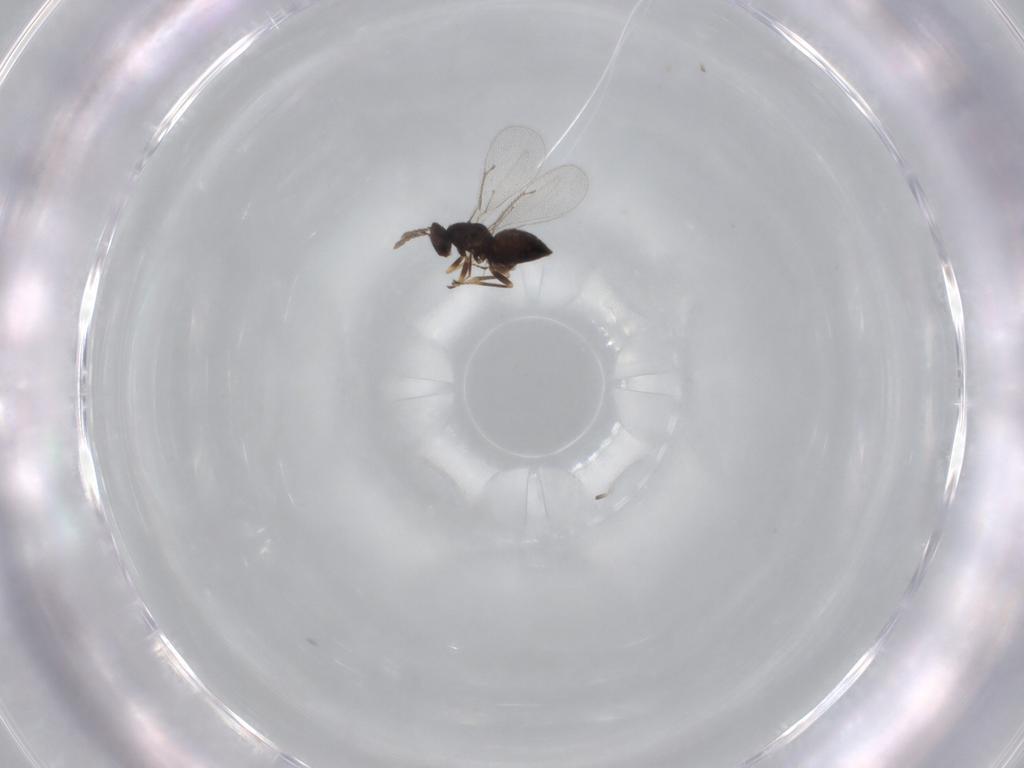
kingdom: Animalia
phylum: Arthropoda
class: Insecta
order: Hymenoptera
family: Eulophidae
